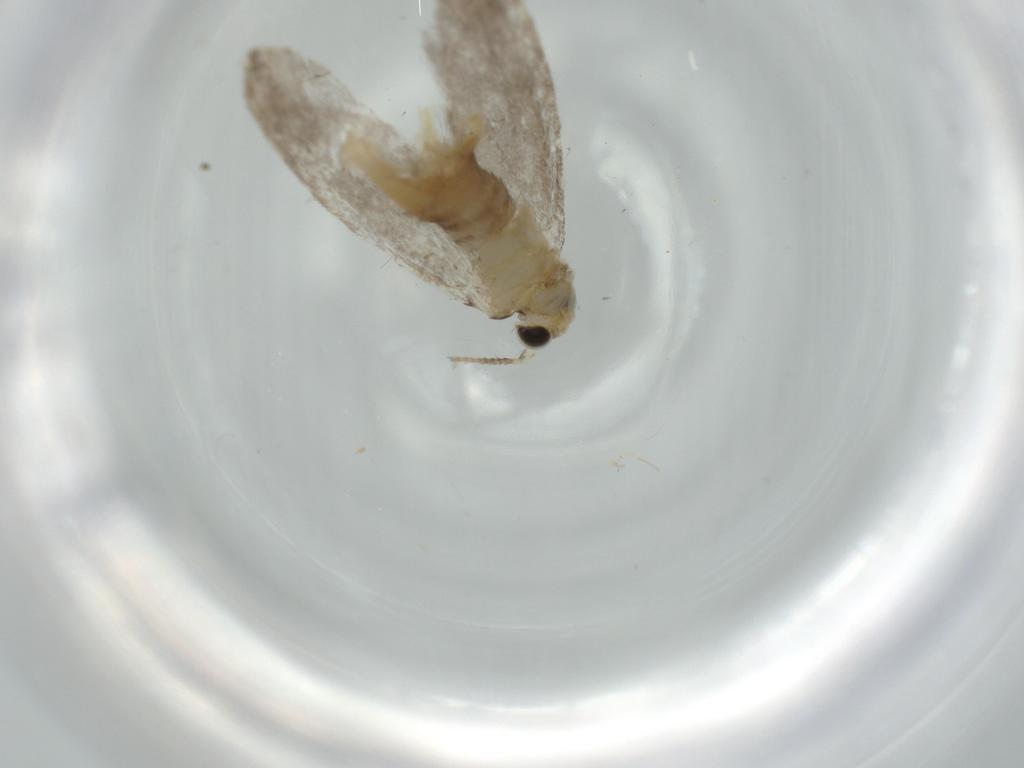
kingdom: Animalia
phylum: Arthropoda
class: Insecta
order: Lepidoptera
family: Tineidae
